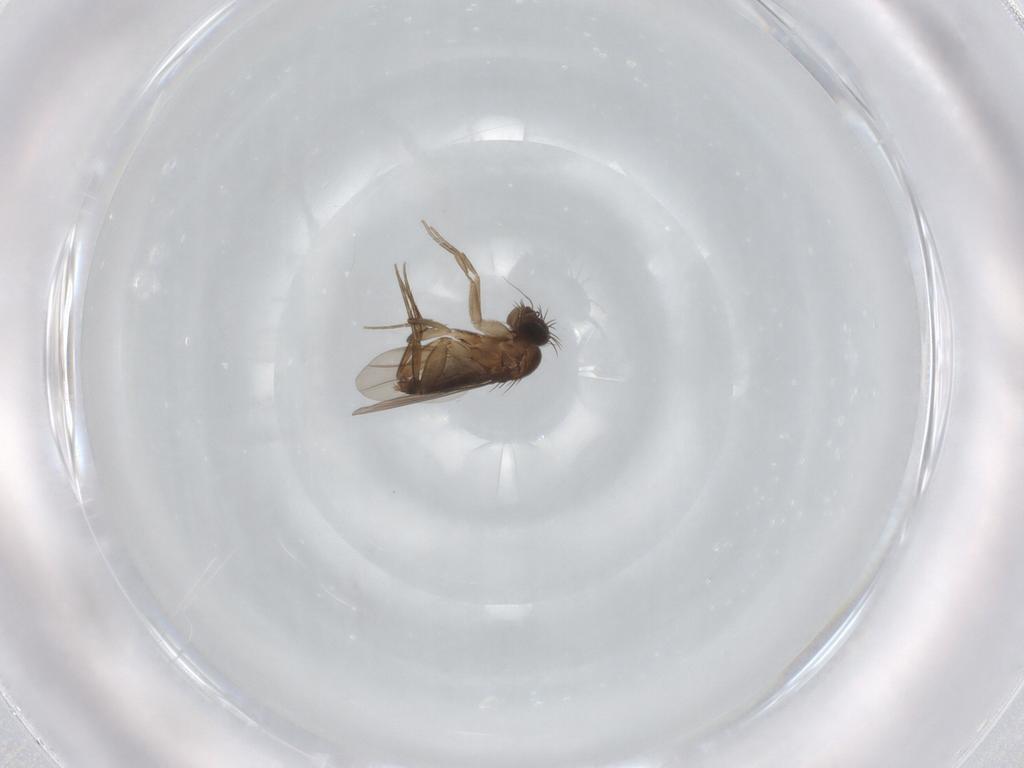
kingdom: Animalia
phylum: Arthropoda
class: Insecta
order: Diptera
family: Phoridae
